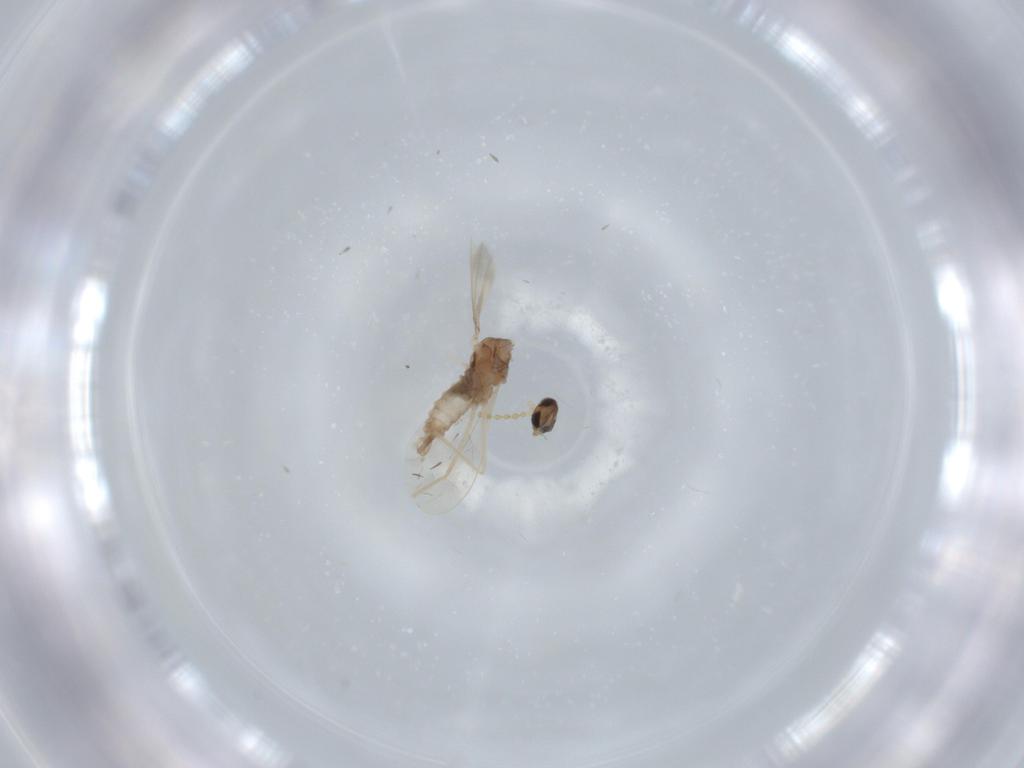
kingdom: Animalia
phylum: Arthropoda
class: Insecta
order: Diptera
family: Cecidomyiidae
